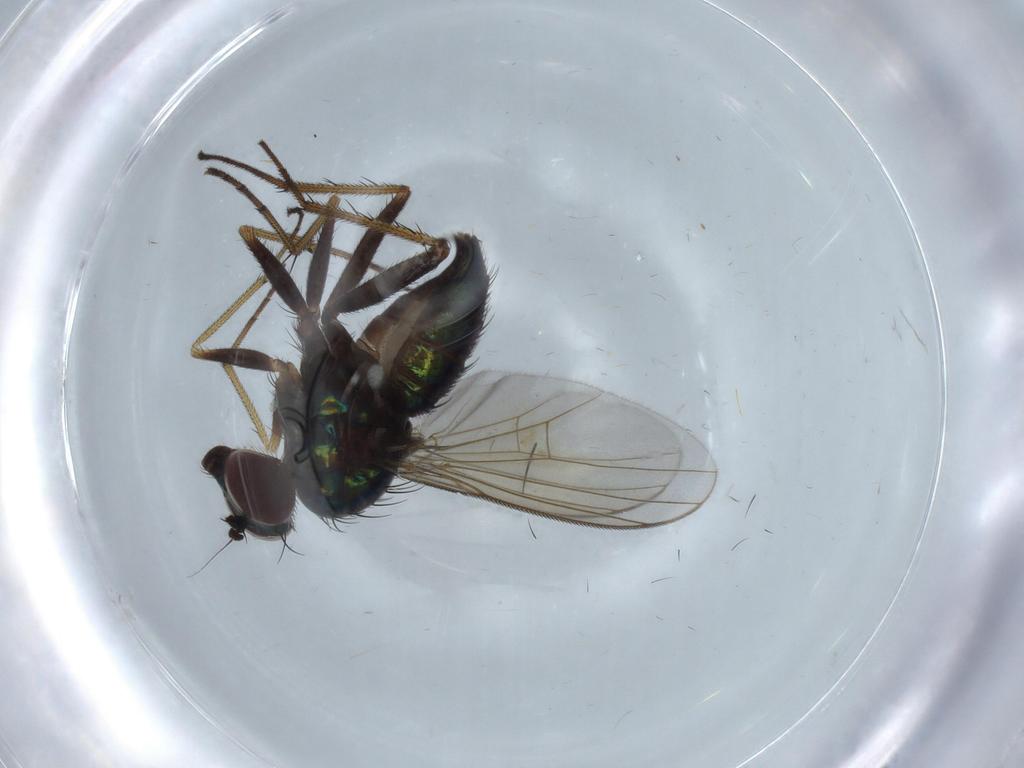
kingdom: Animalia
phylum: Arthropoda
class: Insecta
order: Diptera
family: Dolichopodidae
